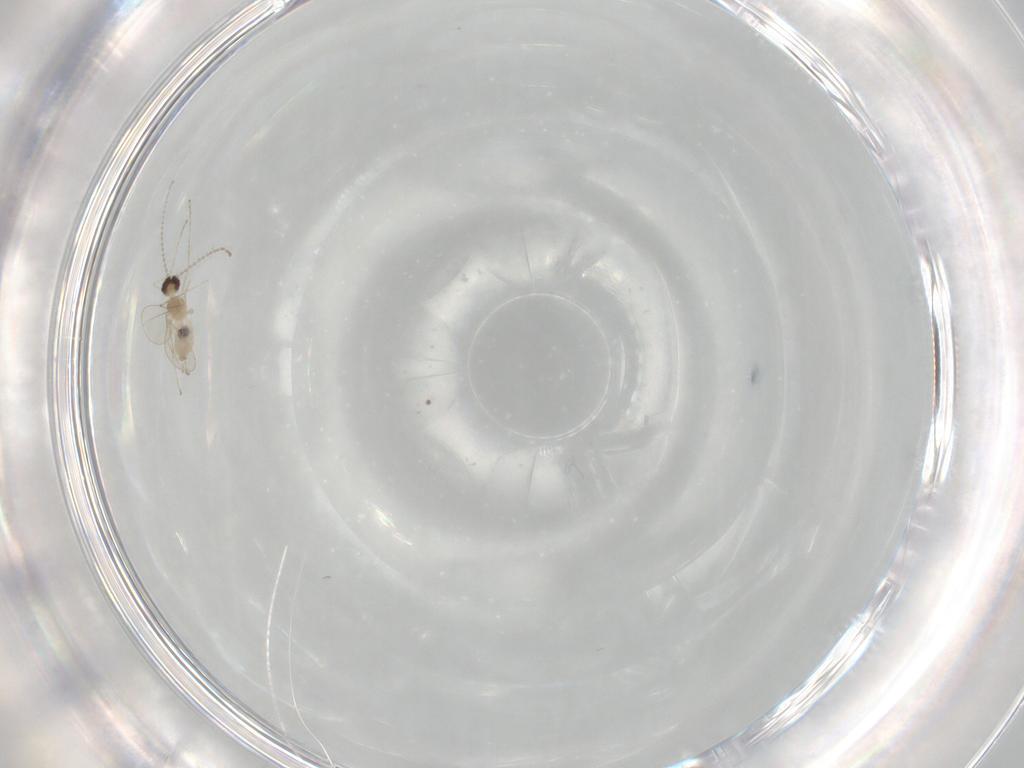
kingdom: Animalia
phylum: Arthropoda
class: Insecta
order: Diptera
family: Cecidomyiidae
